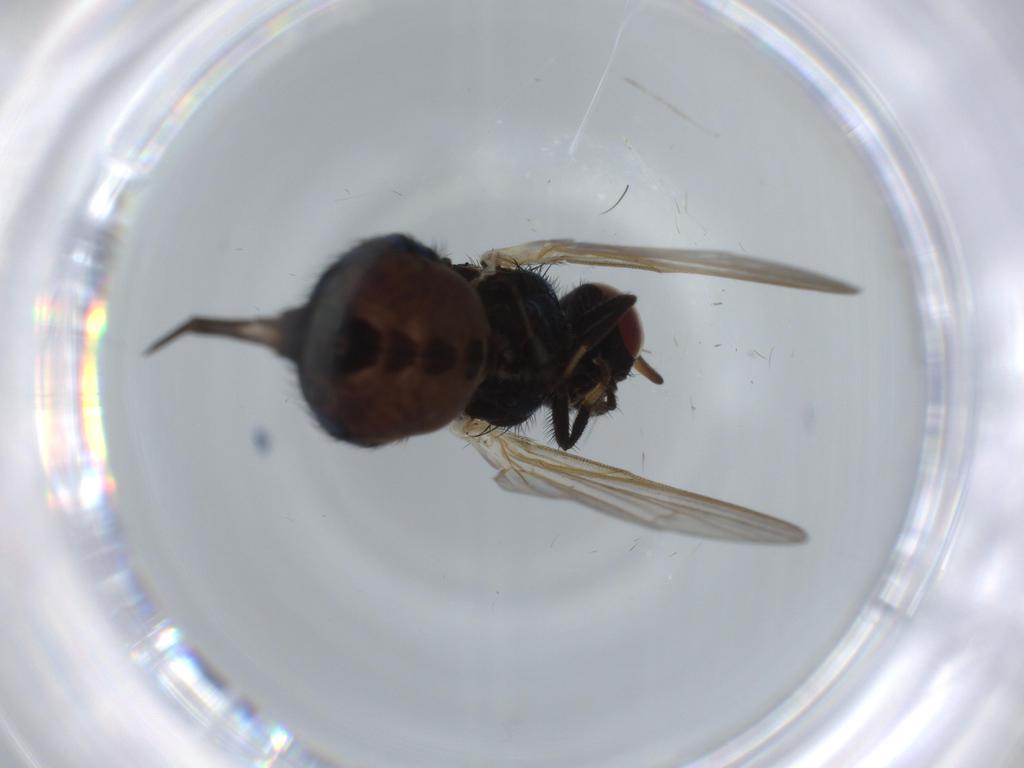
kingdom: Animalia
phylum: Arthropoda
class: Insecta
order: Diptera
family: Cecidomyiidae
